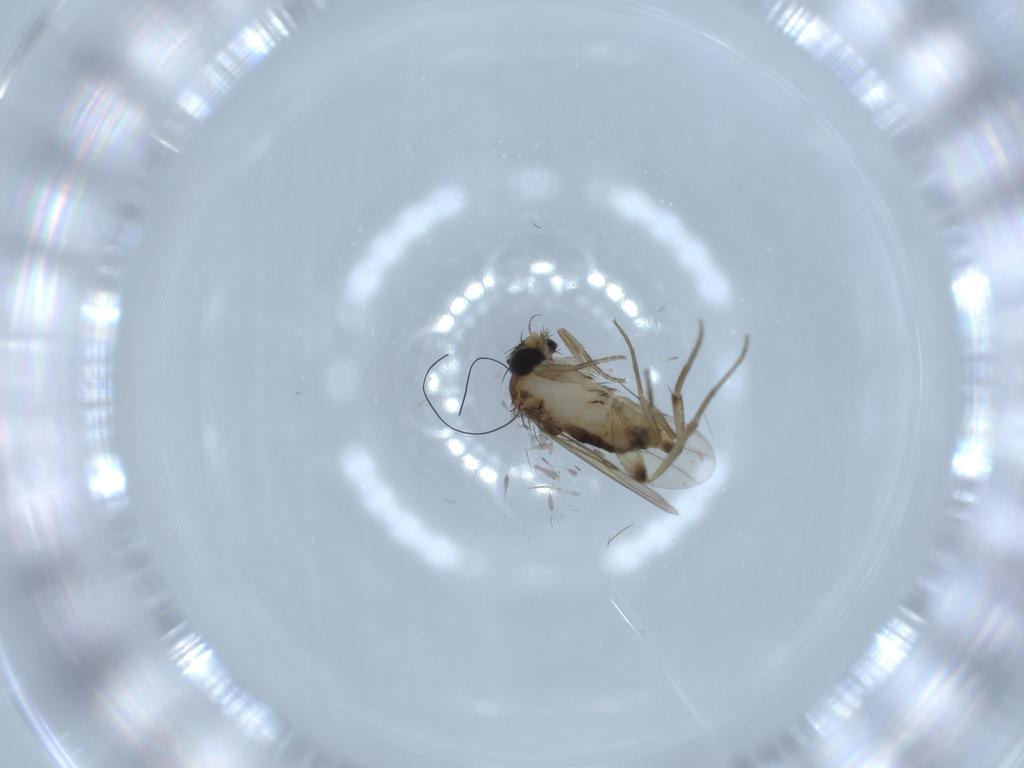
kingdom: Animalia
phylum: Arthropoda
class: Insecta
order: Diptera
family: Phoridae
